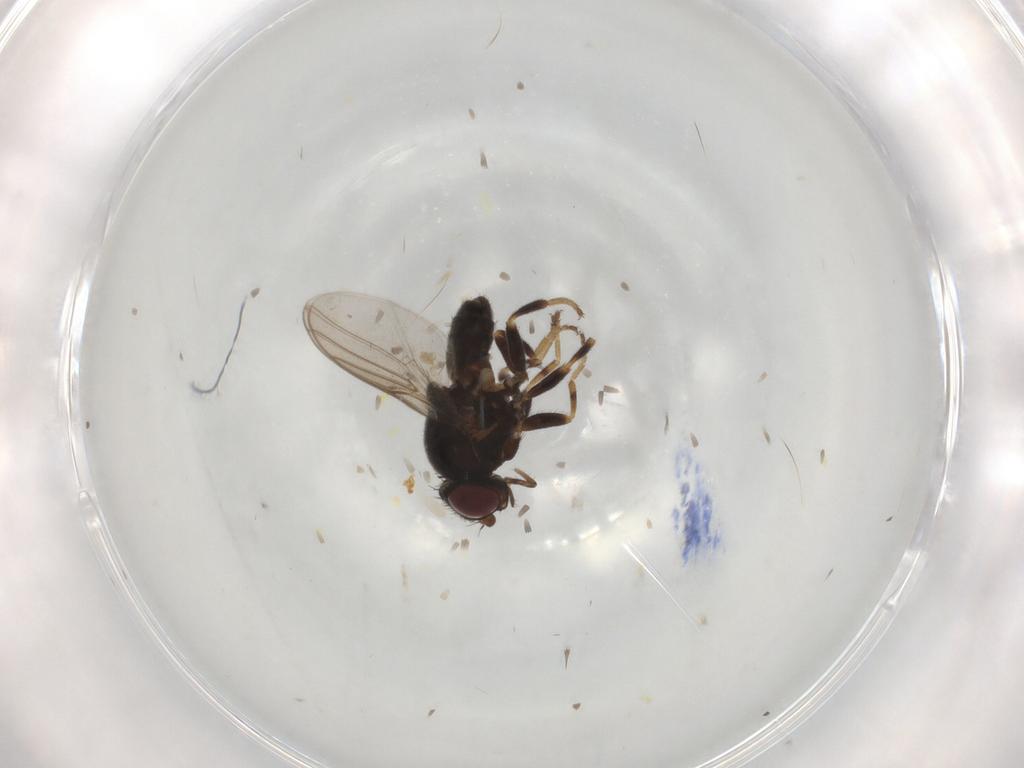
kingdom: Animalia
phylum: Arthropoda
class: Insecta
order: Diptera
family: Chloropidae
